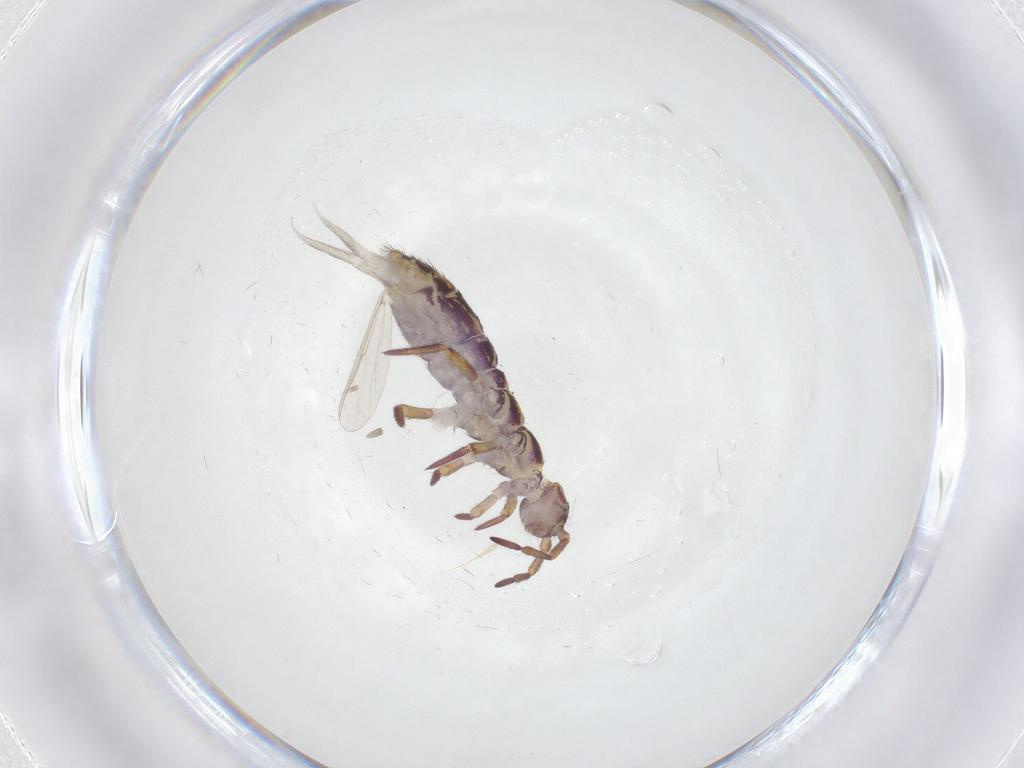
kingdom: Animalia
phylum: Arthropoda
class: Collembola
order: Entomobryomorpha
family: Isotomidae
